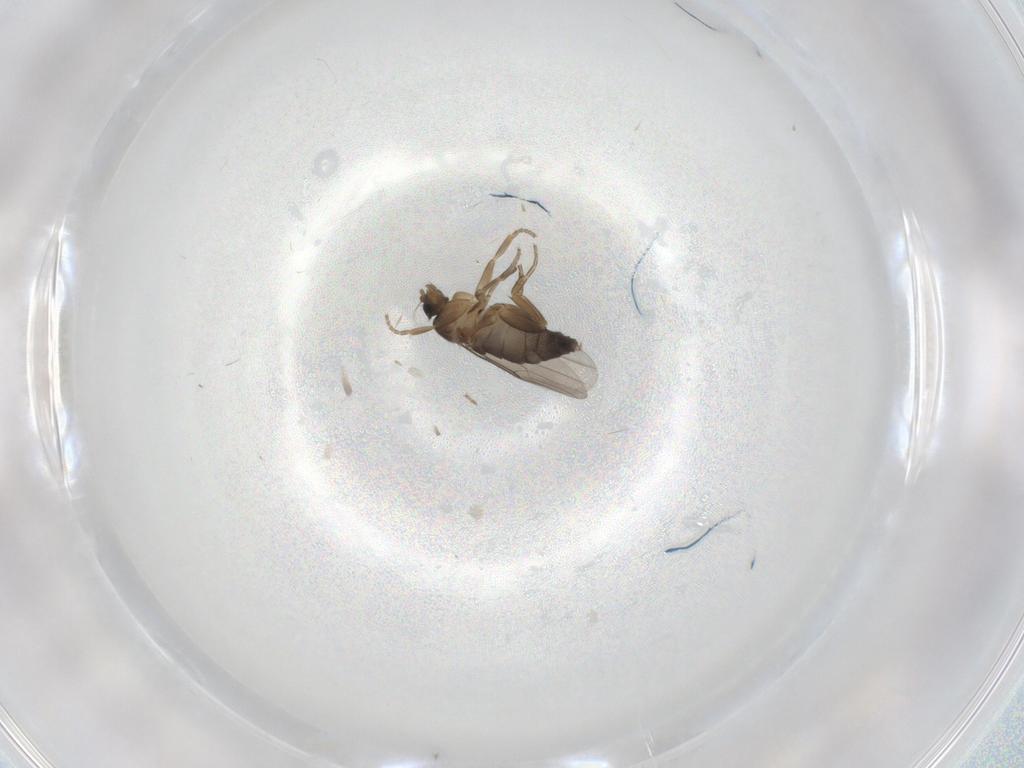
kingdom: Animalia
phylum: Arthropoda
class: Insecta
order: Diptera
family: Phoridae
